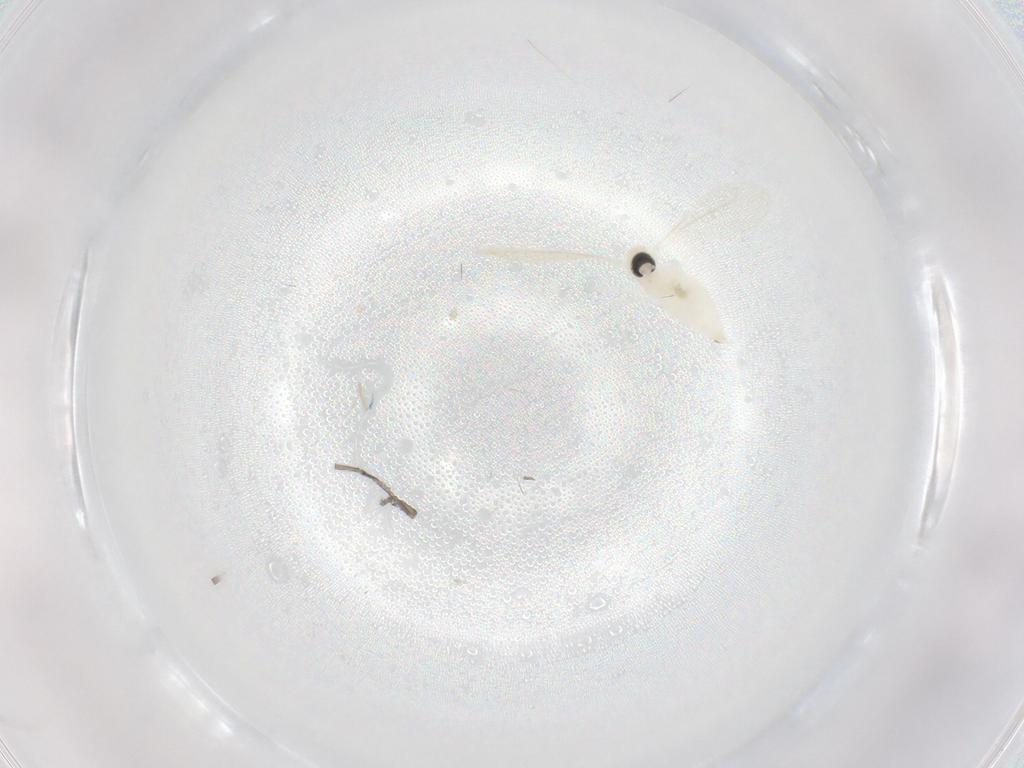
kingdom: Animalia
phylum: Arthropoda
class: Insecta
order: Diptera
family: Cecidomyiidae
